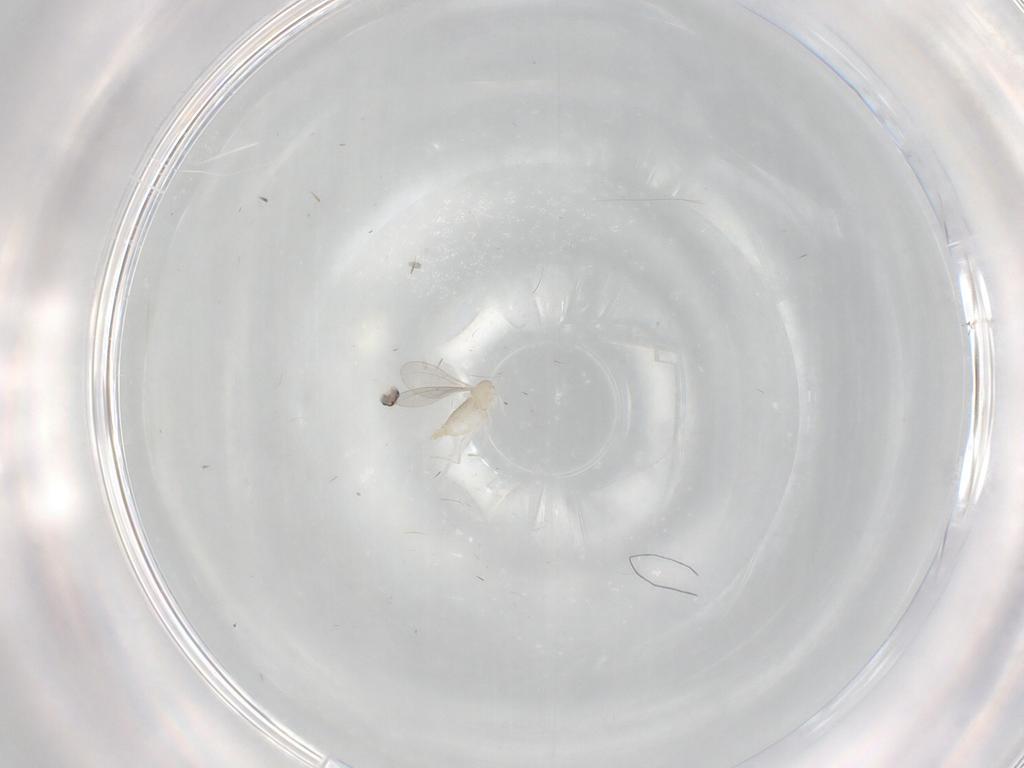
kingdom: Animalia
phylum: Arthropoda
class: Insecta
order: Diptera
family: Cecidomyiidae
